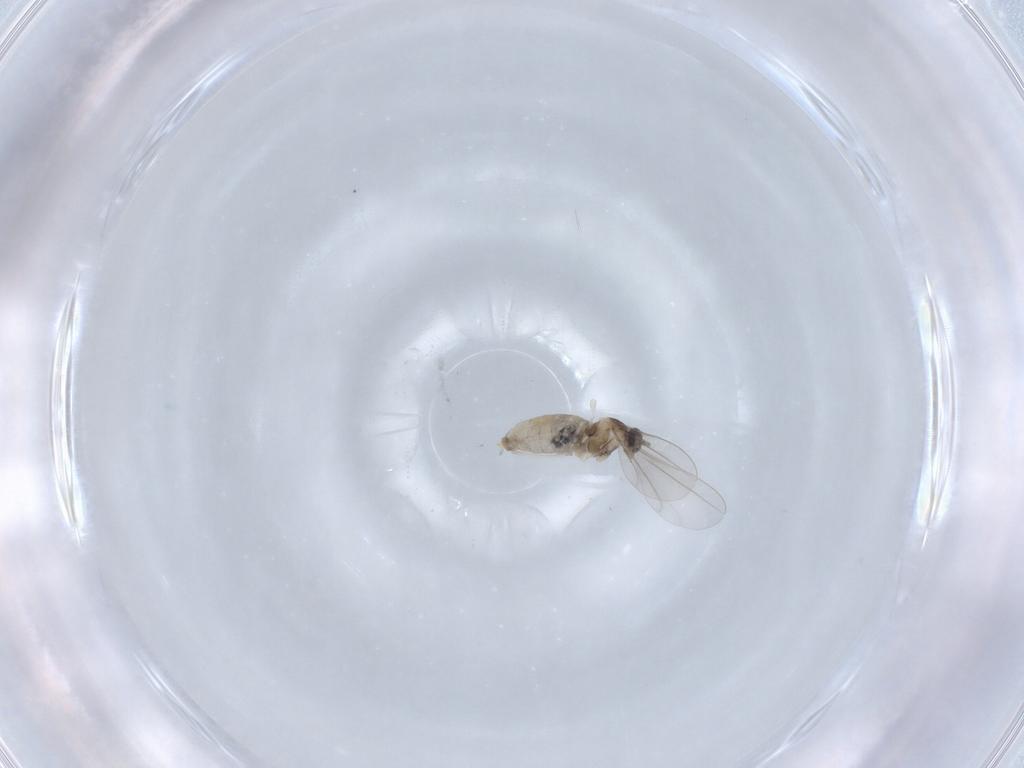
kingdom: Animalia
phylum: Arthropoda
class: Insecta
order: Diptera
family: Cecidomyiidae
